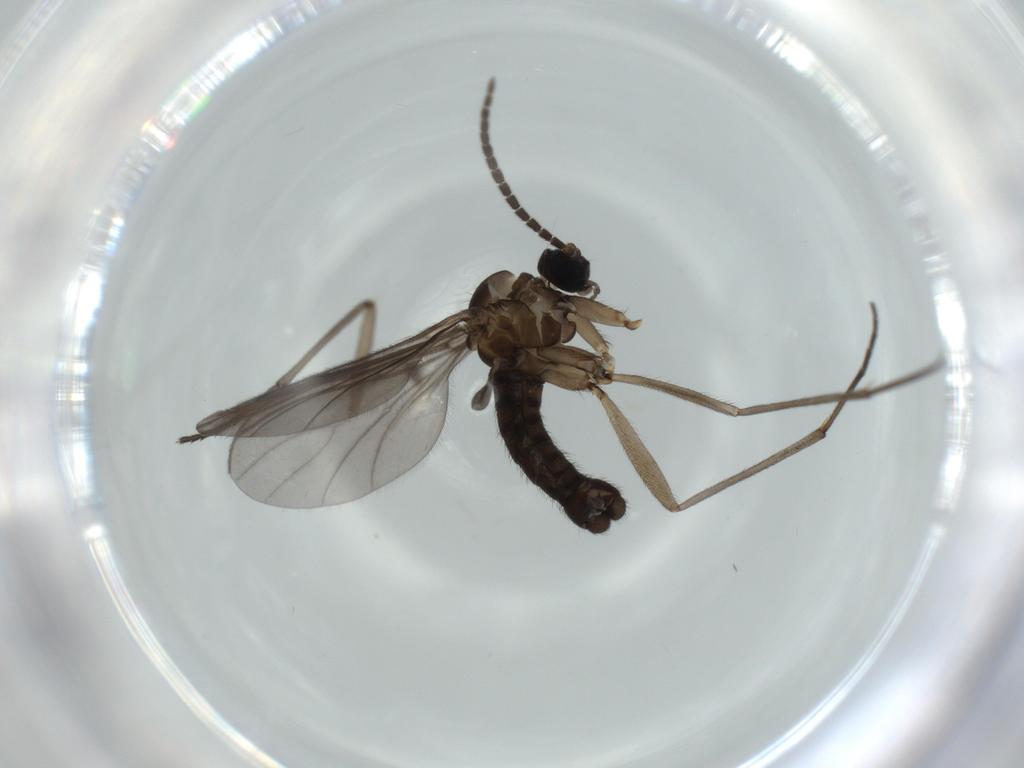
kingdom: Animalia
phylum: Arthropoda
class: Insecta
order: Diptera
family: Sciaridae
